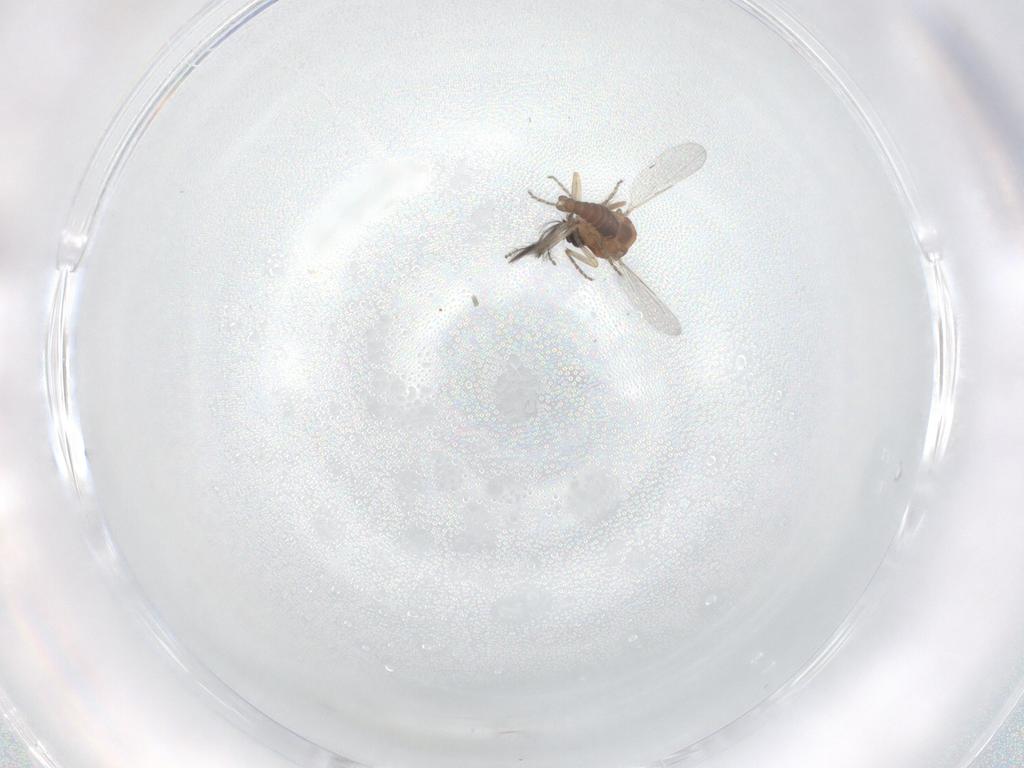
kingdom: Animalia
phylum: Arthropoda
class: Insecta
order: Diptera
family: Ceratopogonidae
